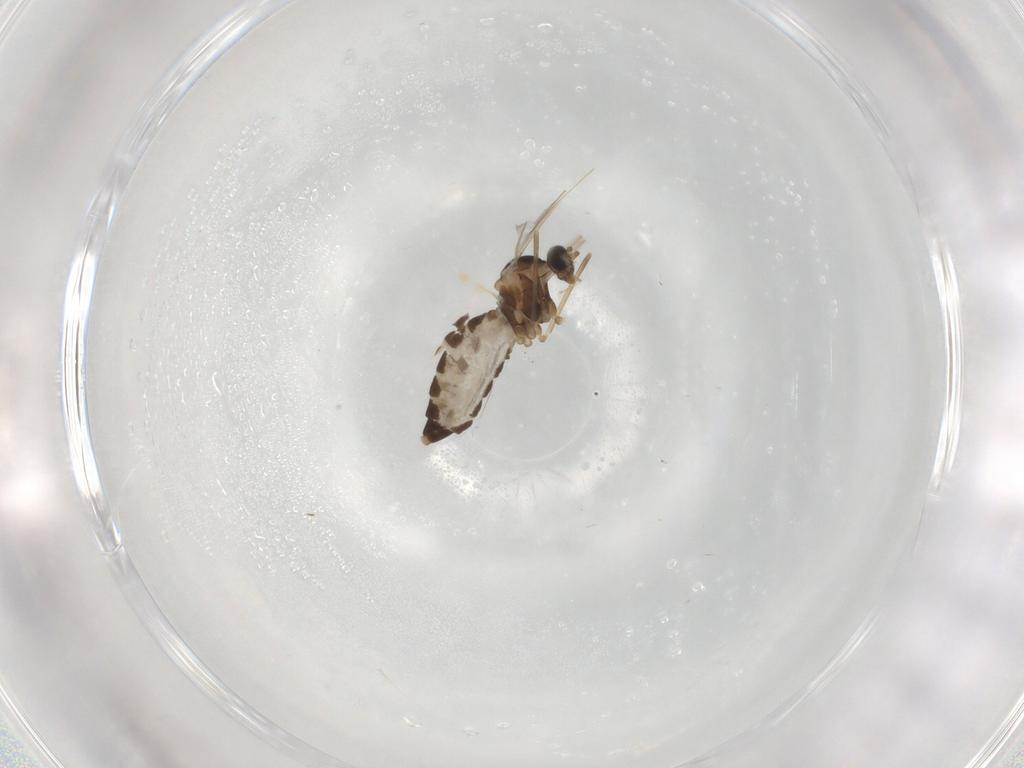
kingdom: Animalia
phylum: Arthropoda
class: Insecta
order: Diptera
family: Cecidomyiidae
